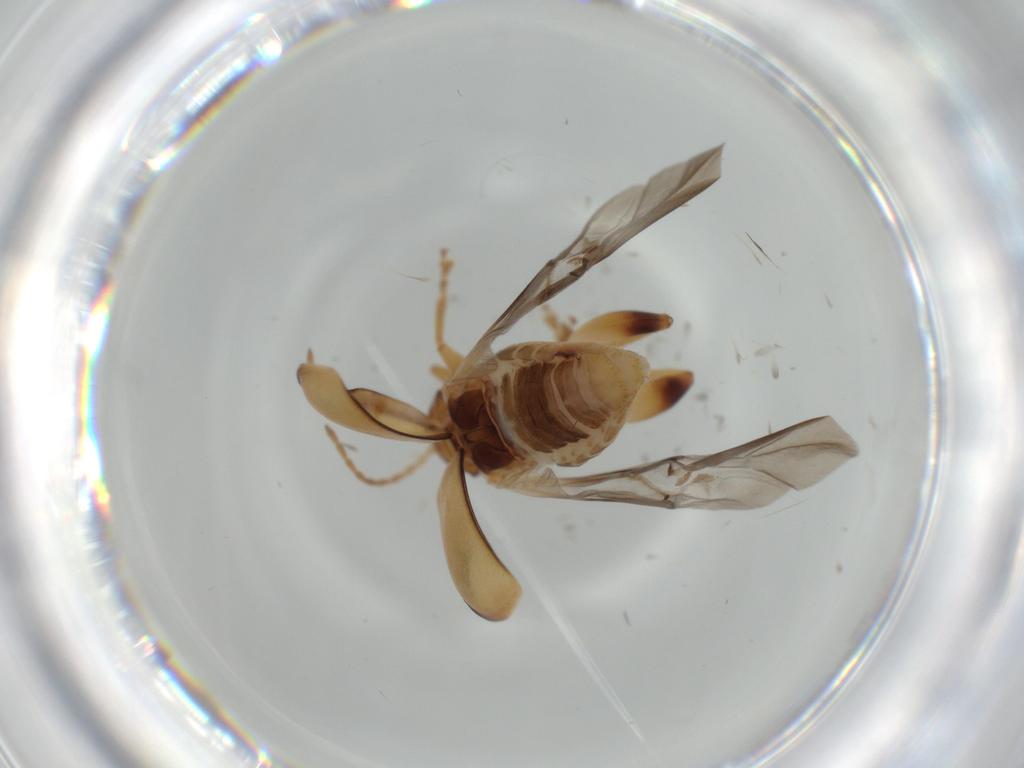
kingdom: Animalia
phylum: Arthropoda
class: Insecta
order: Coleoptera
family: Chrysomelidae
